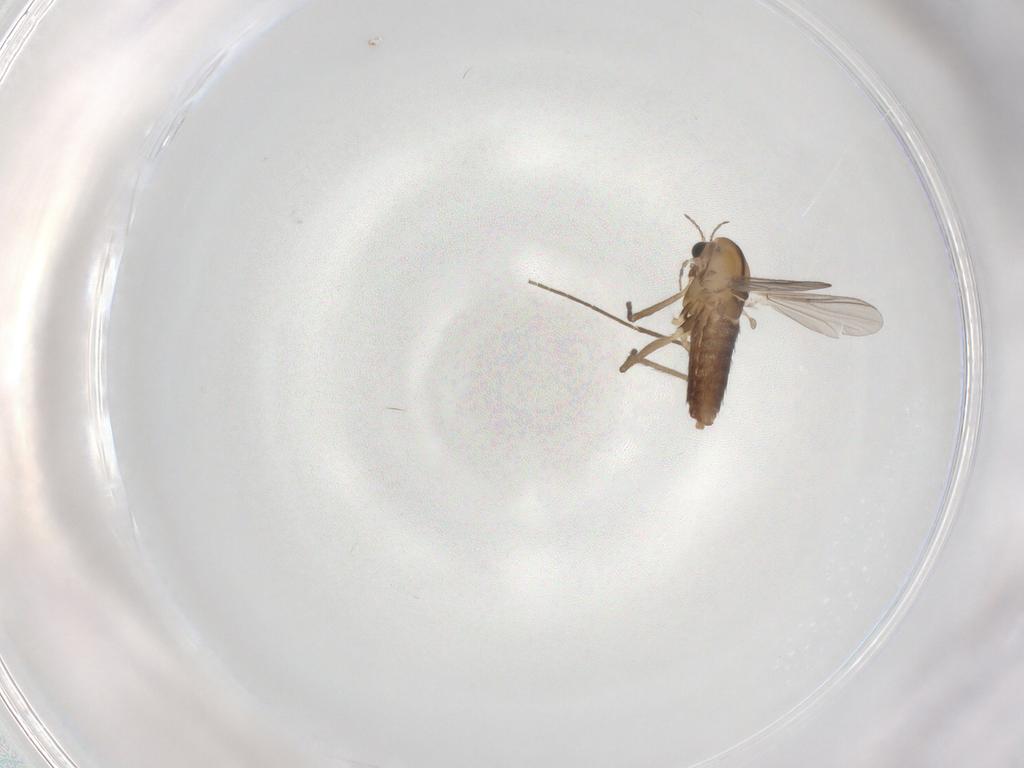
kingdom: Animalia
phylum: Arthropoda
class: Insecta
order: Diptera
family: Chironomidae
